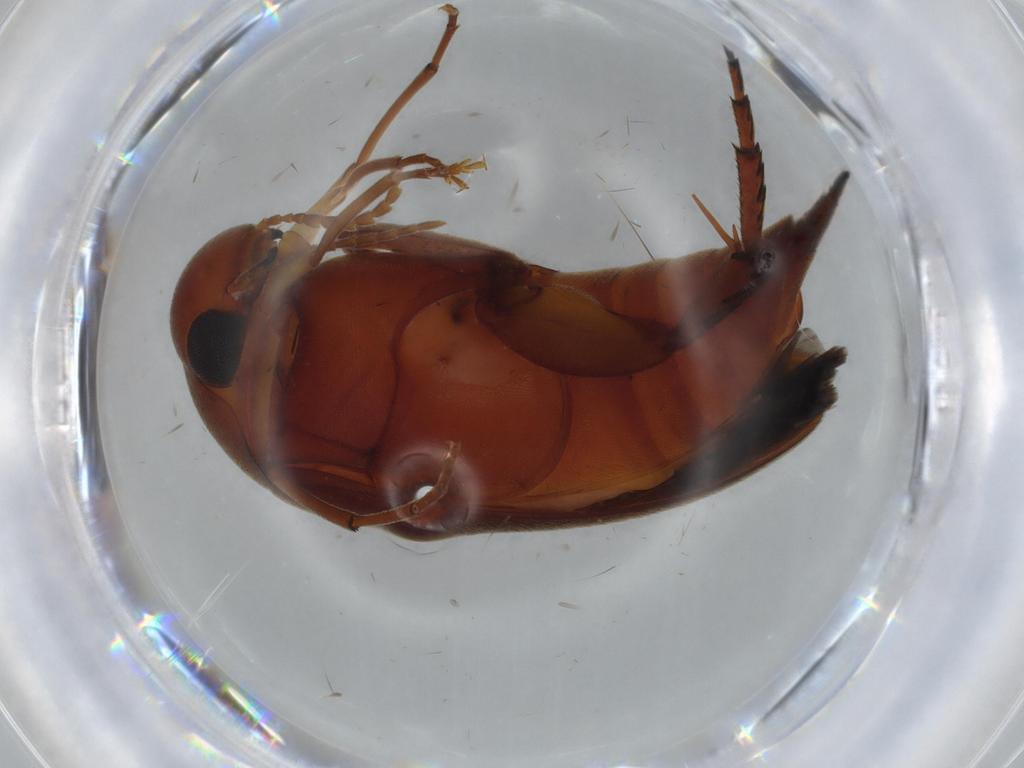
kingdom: Animalia
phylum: Arthropoda
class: Insecta
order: Coleoptera
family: Mordellidae
